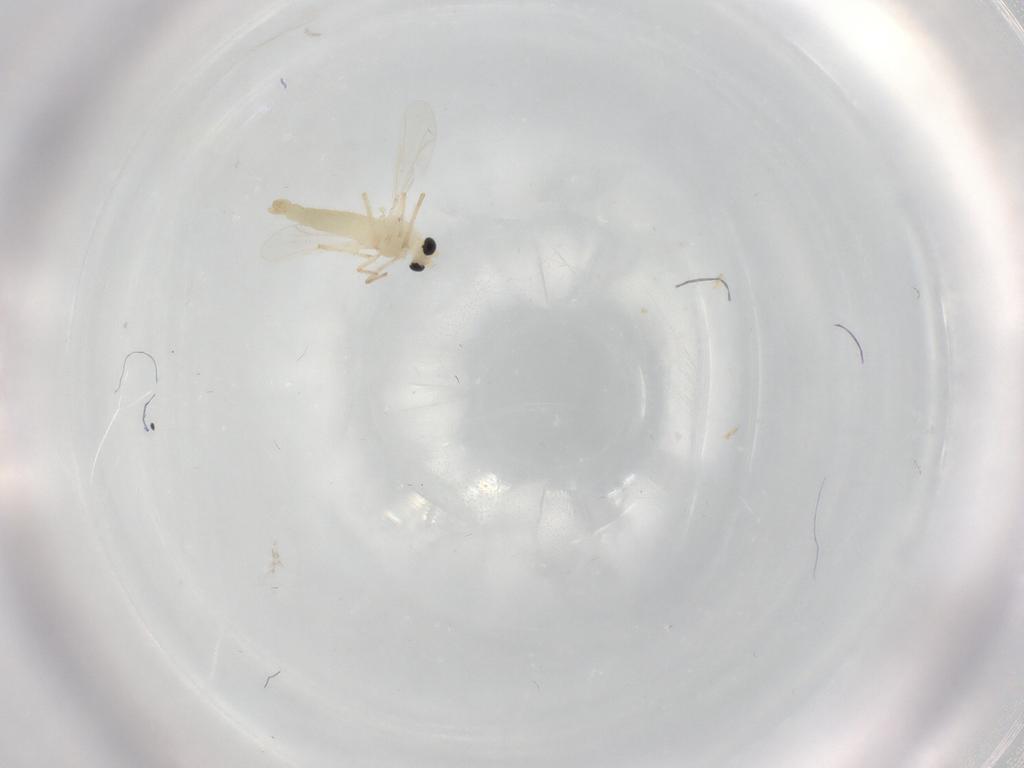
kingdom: Animalia
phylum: Arthropoda
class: Insecta
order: Diptera
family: Chironomidae
